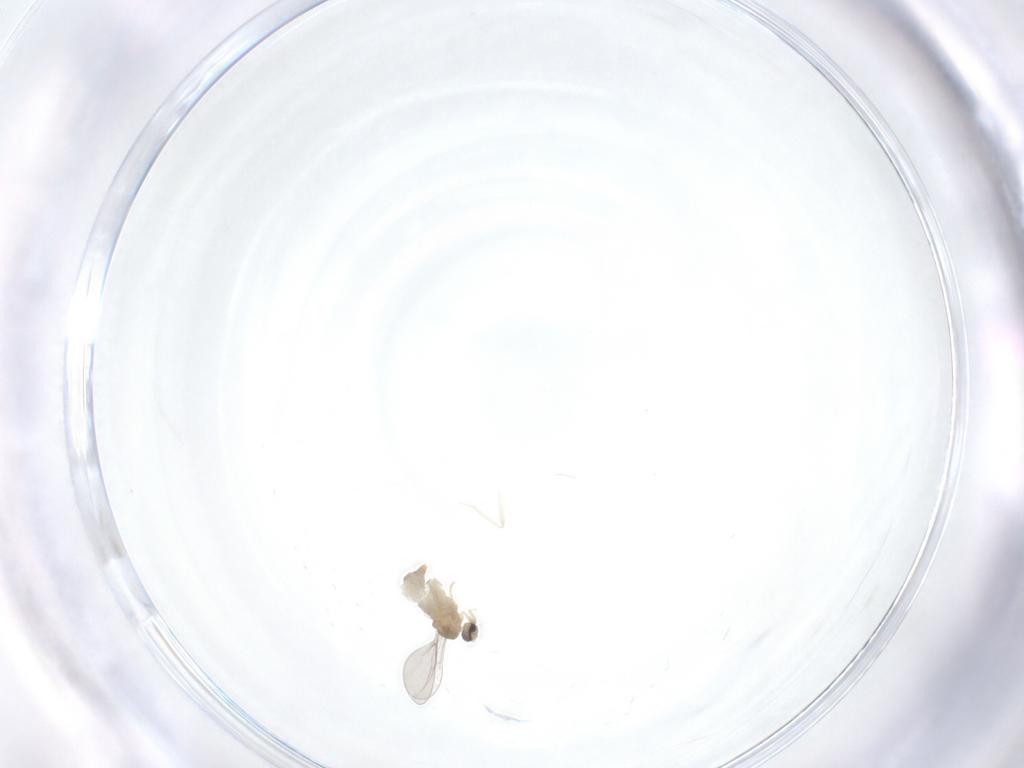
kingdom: Animalia
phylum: Arthropoda
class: Insecta
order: Diptera
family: Cecidomyiidae
